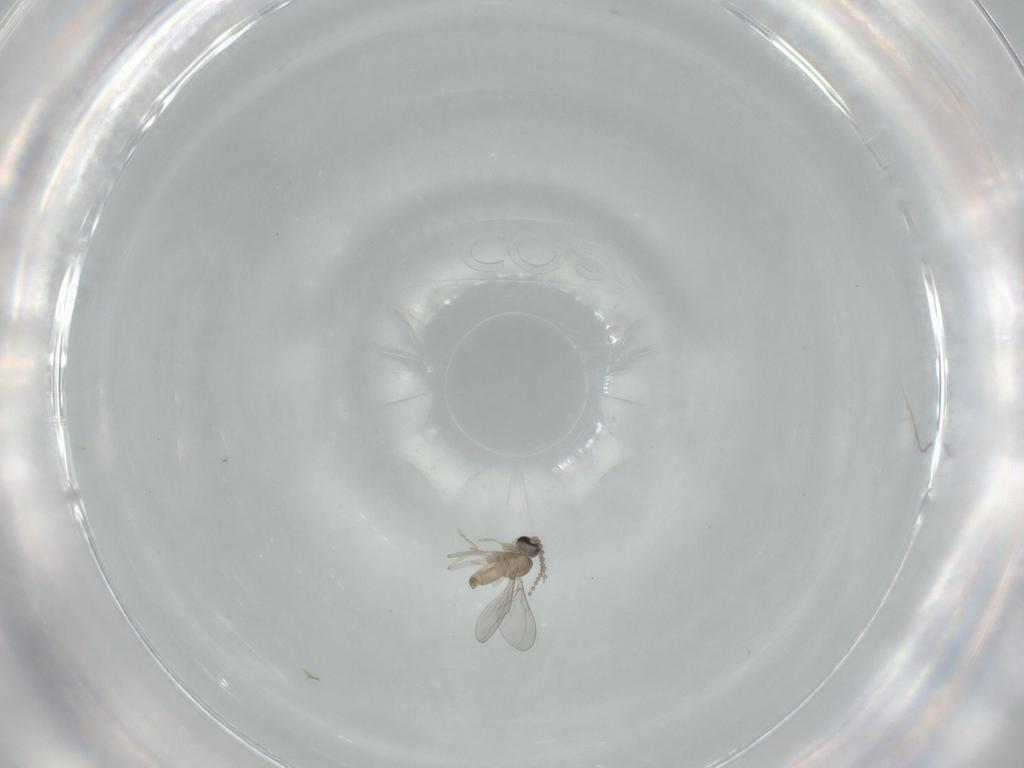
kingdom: Animalia
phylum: Arthropoda
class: Insecta
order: Diptera
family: Cecidomyiidae
